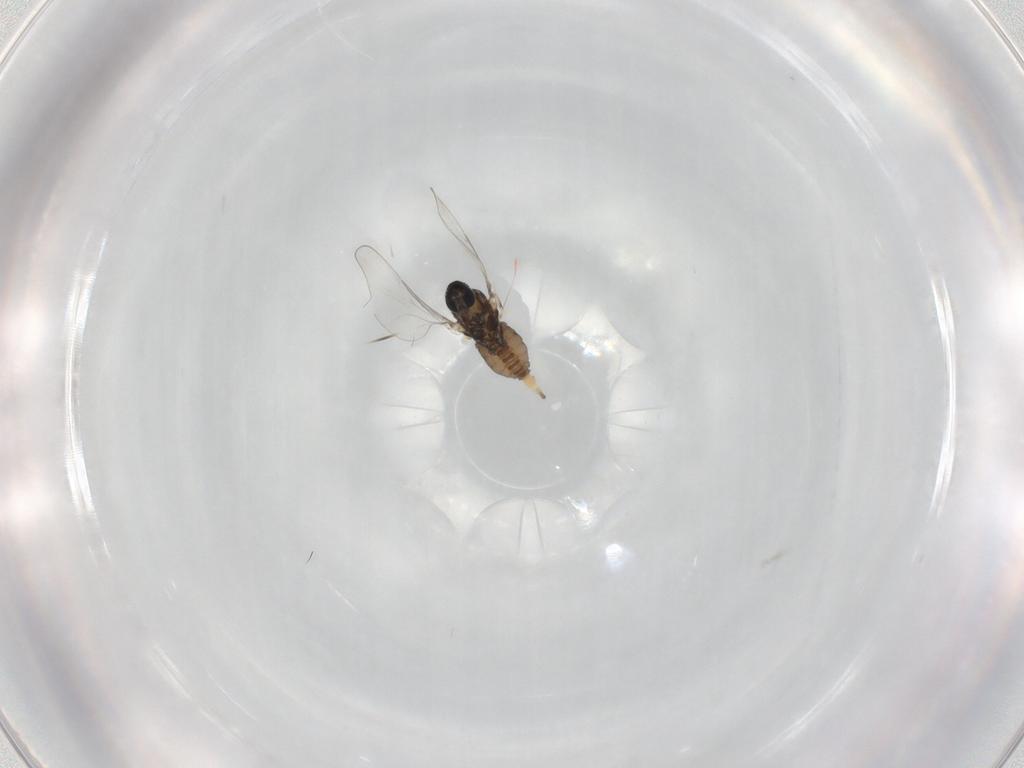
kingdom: Animalia
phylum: Arthropoda
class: Insecta
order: Diptera
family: Cecidomyiidae
